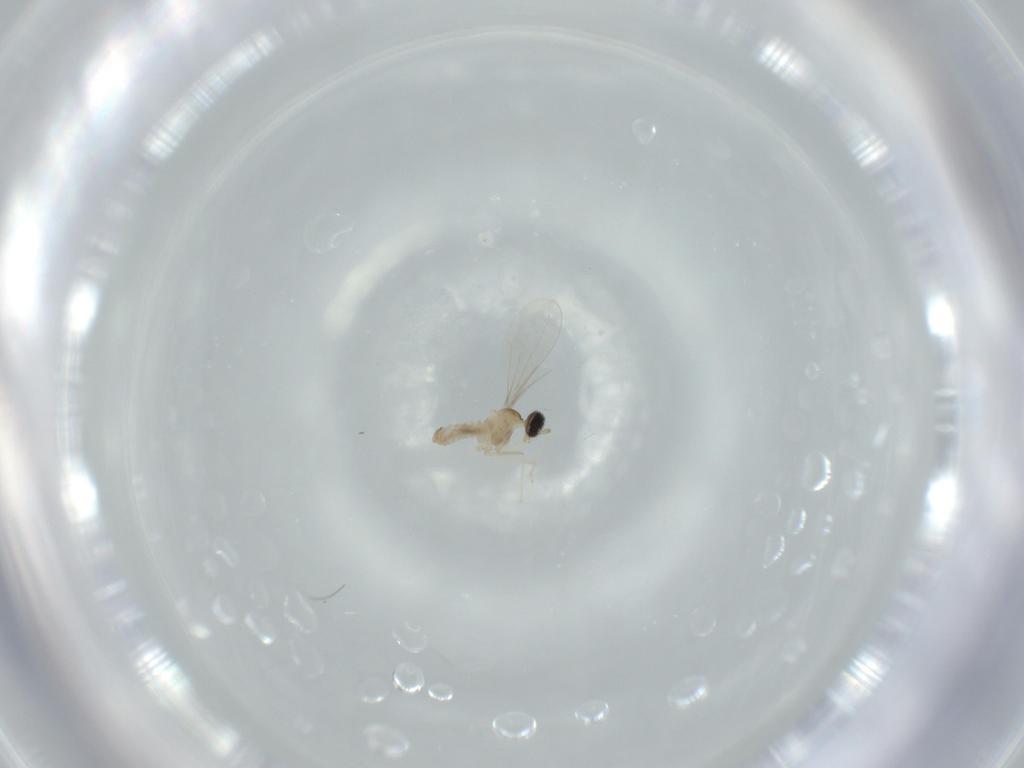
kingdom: Animalia
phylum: Arthropoda
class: Insecta
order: Diptera
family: Cecidomyiidae
